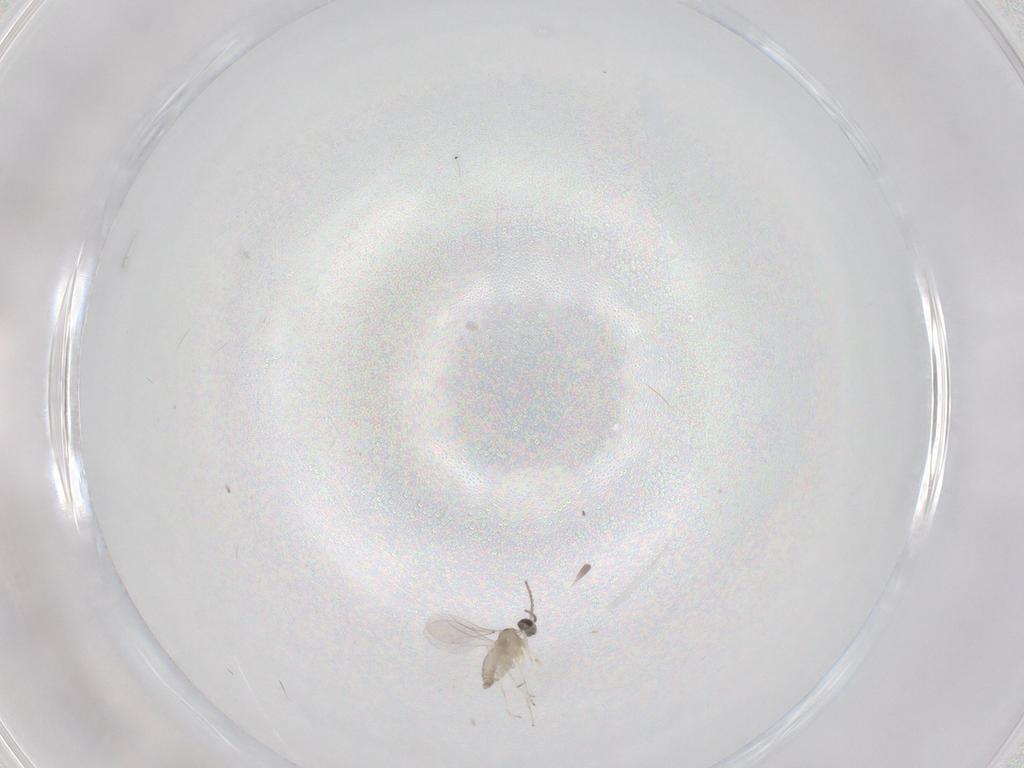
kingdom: Animalia
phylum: Arthropoda
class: Insecta
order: Diptera
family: Cecidomyiidae
